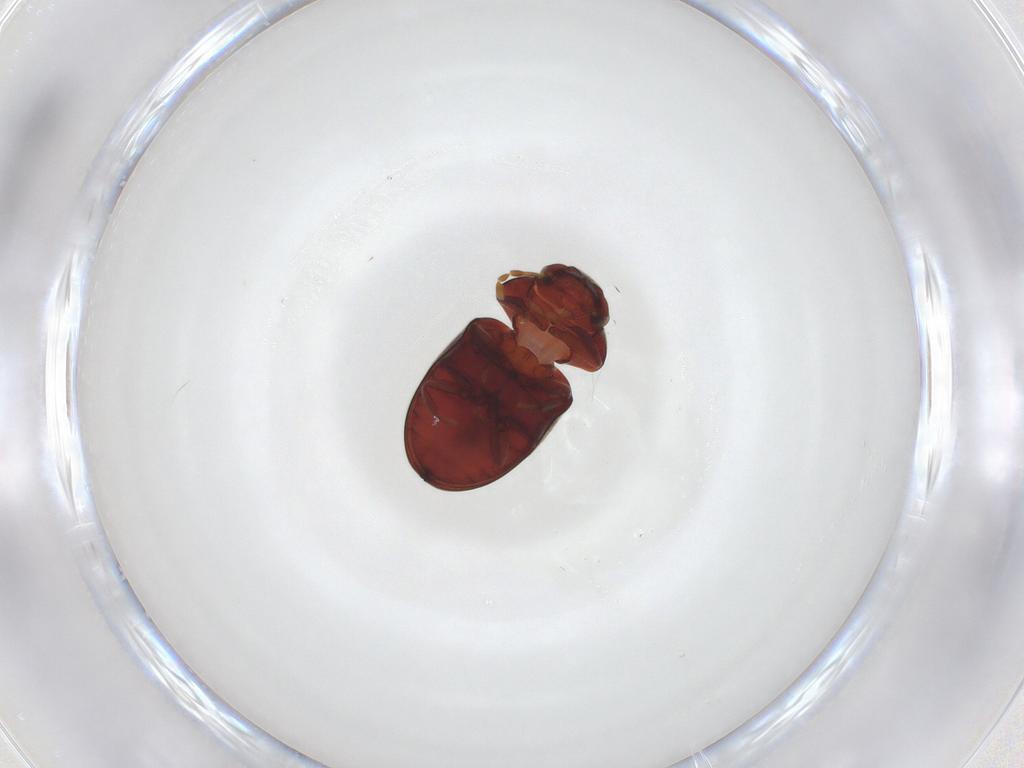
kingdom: Animalia
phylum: Arthropoda
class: Insecta
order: Coleoptera
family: Ptinidae
